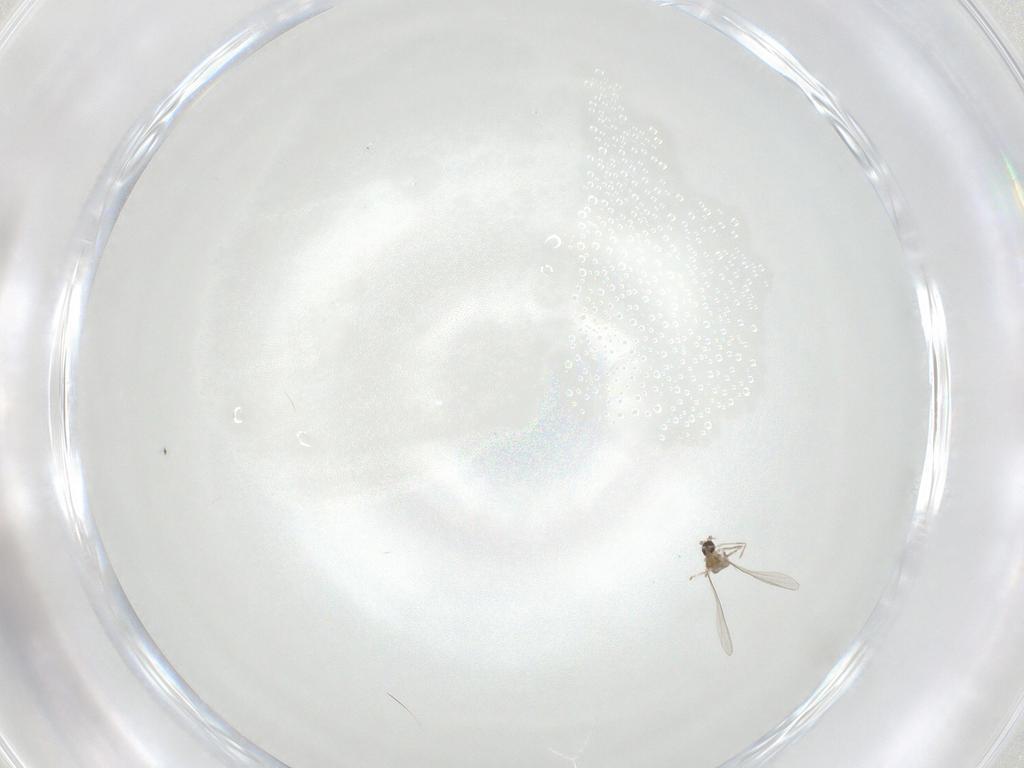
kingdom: Animalia
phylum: Arthropoda
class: Insecta
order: Diptera
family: Cecidomyiidae
